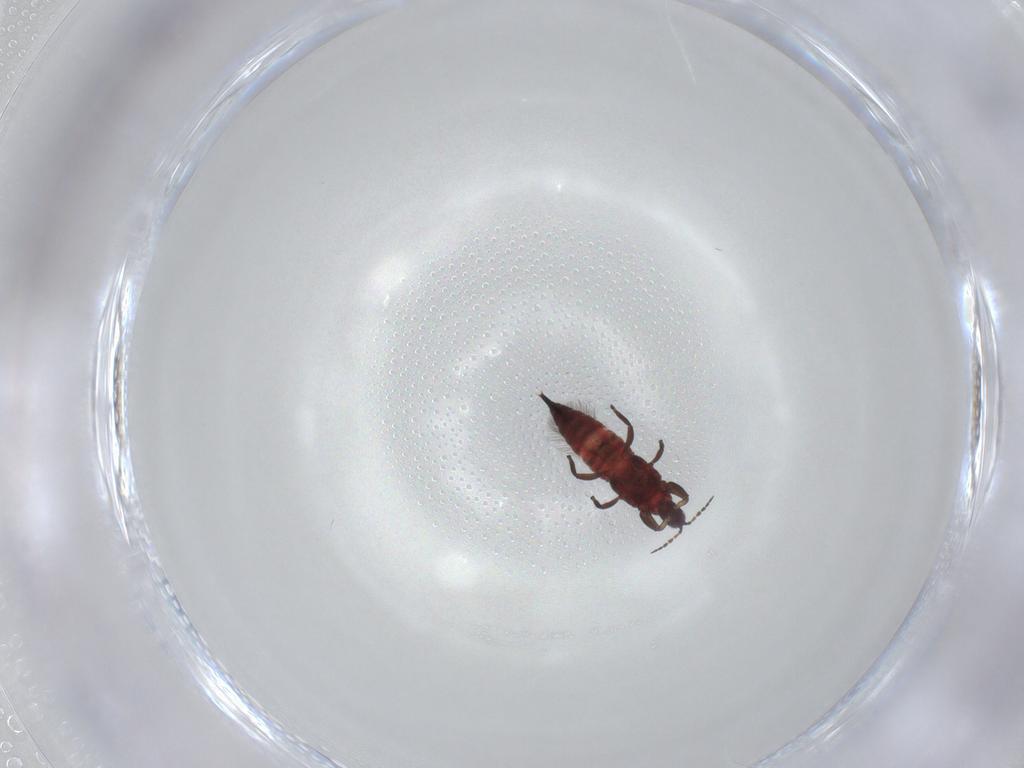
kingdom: Animalia
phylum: Arthropoda
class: Insecta
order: Thysanoptera
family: Phlaeothripidae
